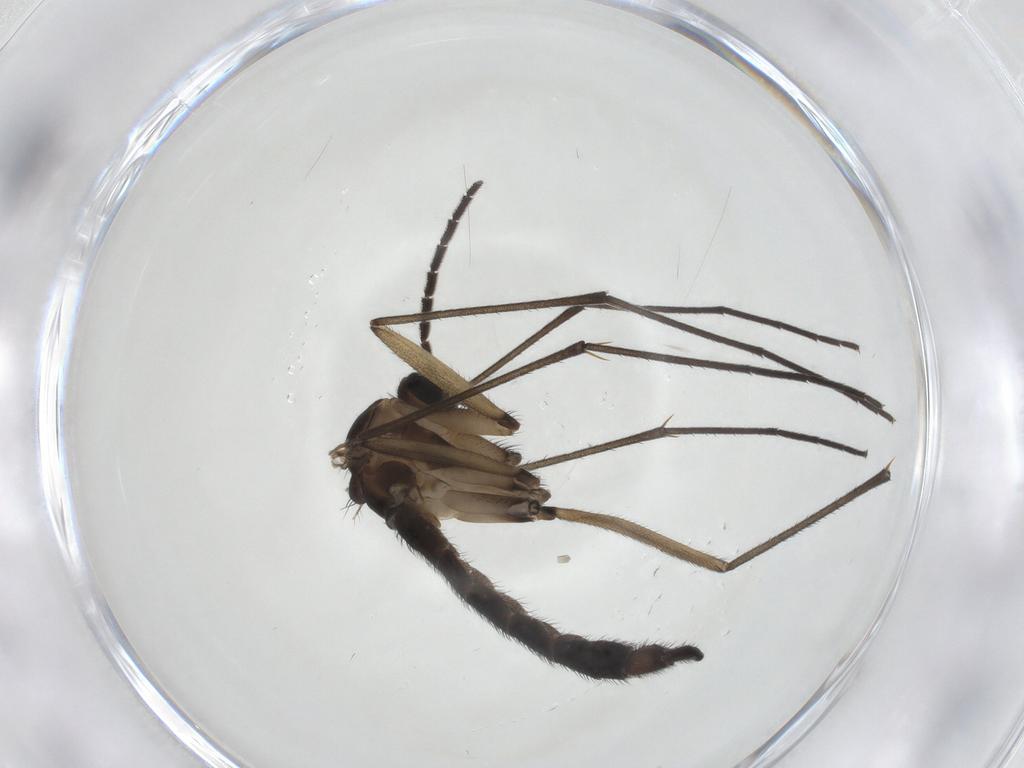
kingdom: Animalia
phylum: Arthropoda
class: Insecta
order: Diptera
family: Sciaridae
